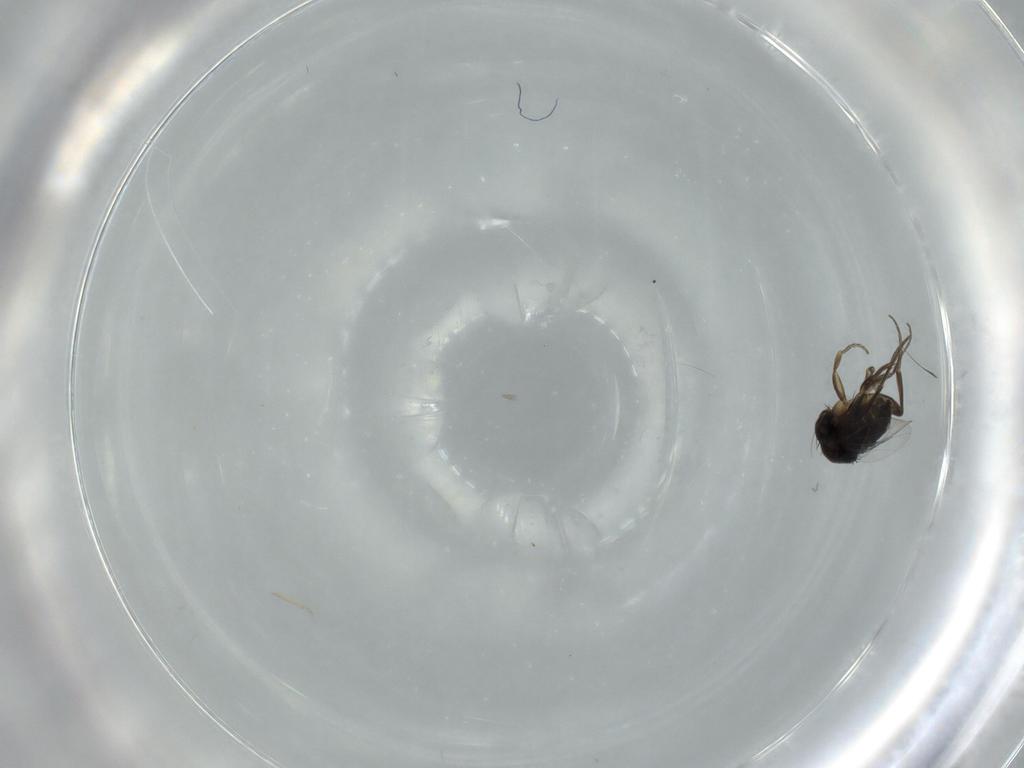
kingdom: Animalia
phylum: Arthropoda
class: Insecta
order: Diptera
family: Phoridae
